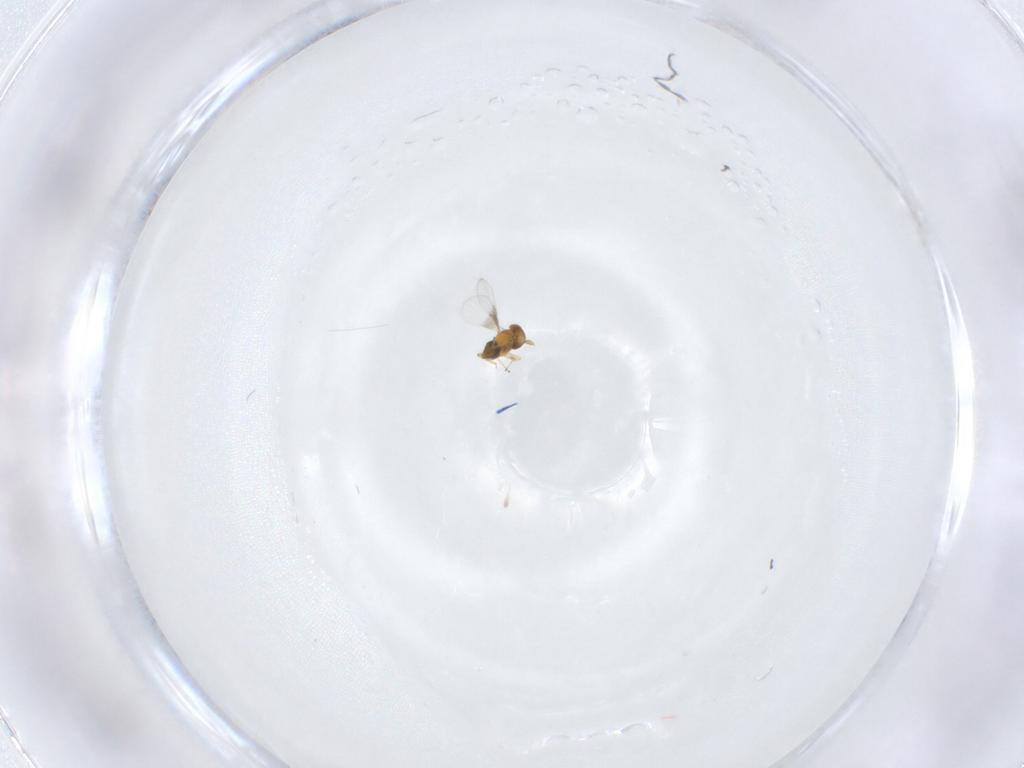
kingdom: Animalia
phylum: Arthropoda
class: Insecta
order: Hymenoptera
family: Trichogrammatidae
